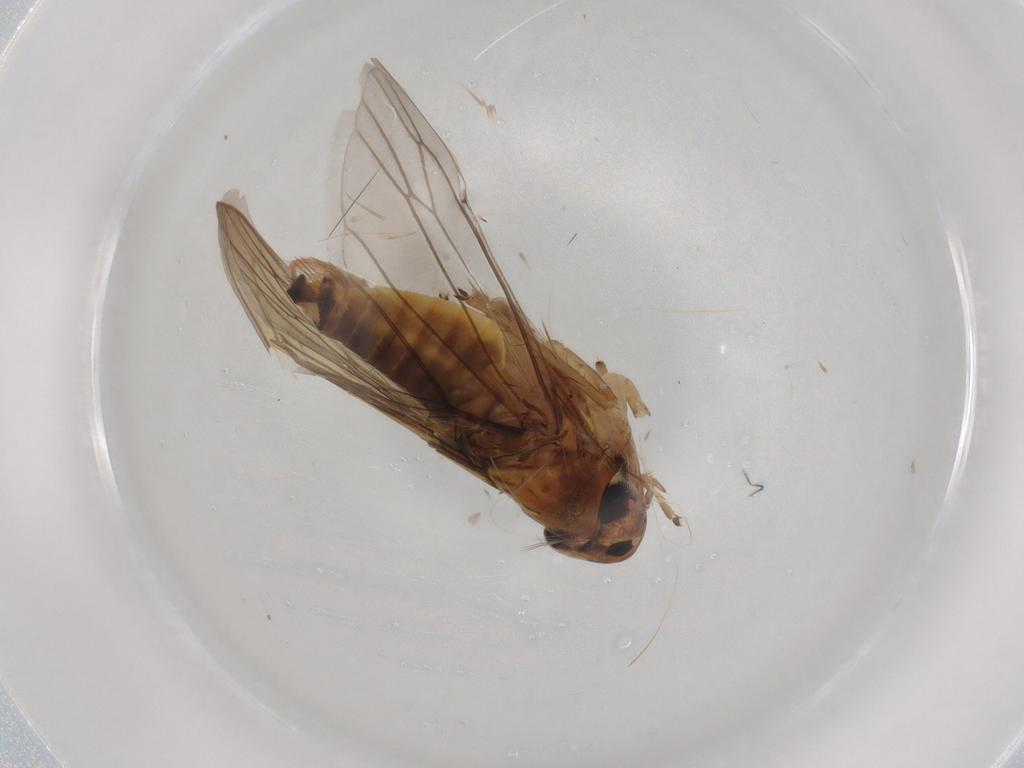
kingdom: Animalia
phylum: Arthropoda
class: Insecta
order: Hemiptera
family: Cicadellidae
